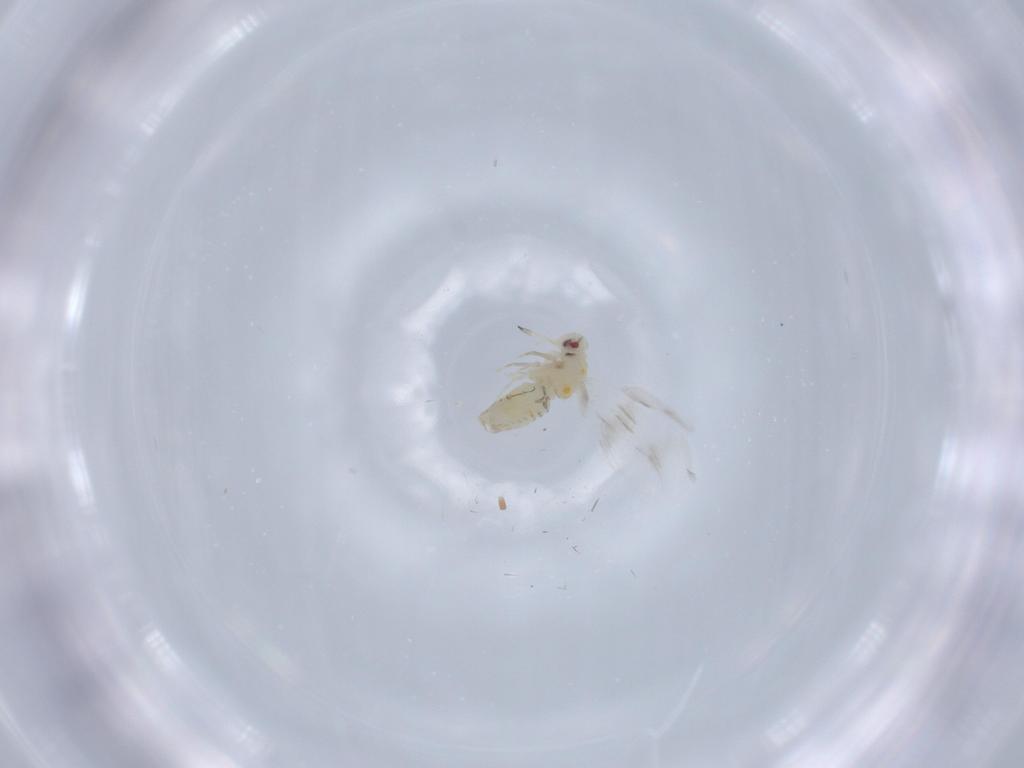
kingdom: Animalia
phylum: Arthropoda
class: Insecta
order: Hemiptera
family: Aleyrodidae
